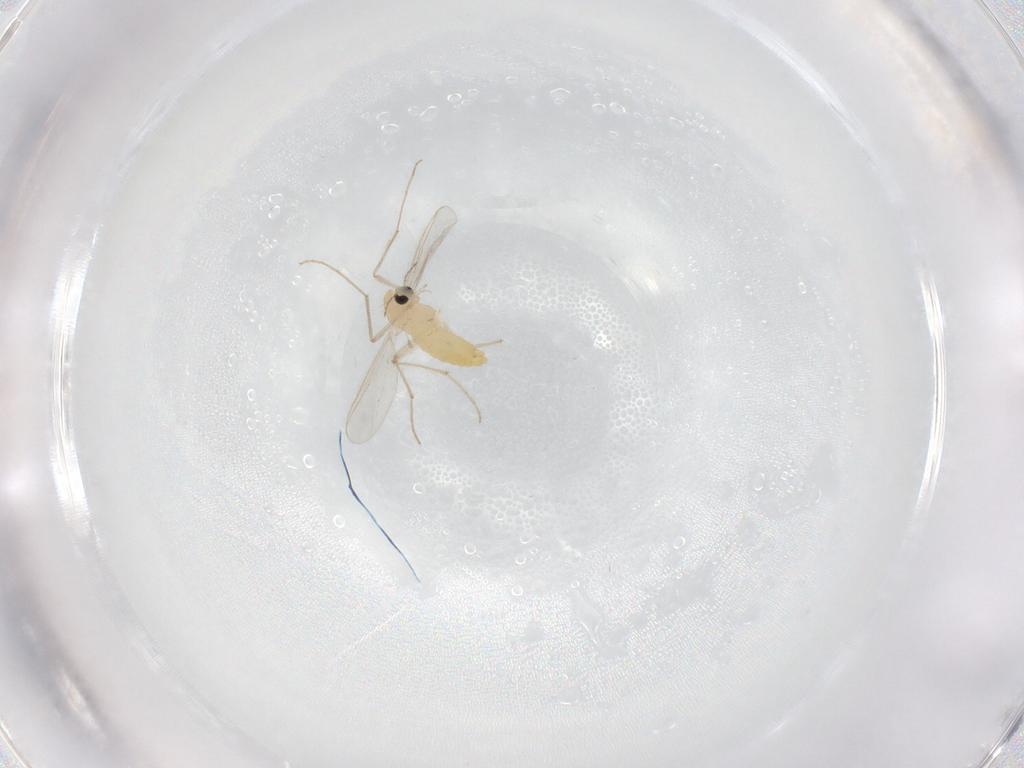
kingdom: Animalia
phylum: Arthropoda
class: Insecta
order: Diptera
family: Chironomidae
